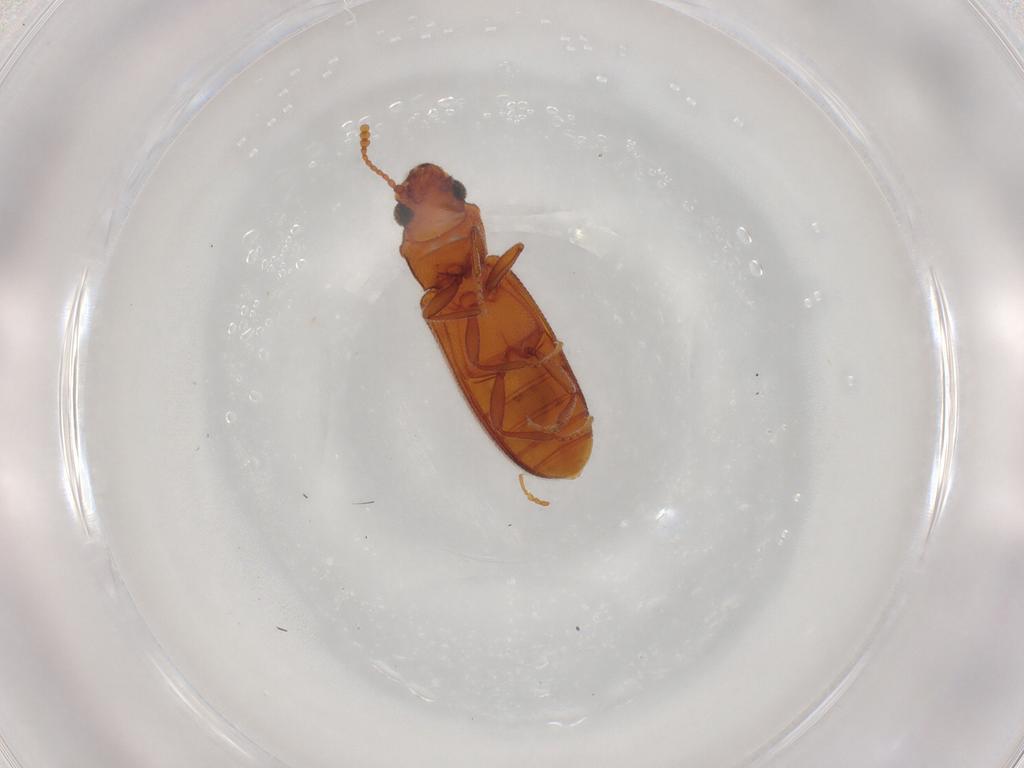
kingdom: Animalia
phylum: Arthropoda
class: Insecta
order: Coleoptera
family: Cryptophagidae
